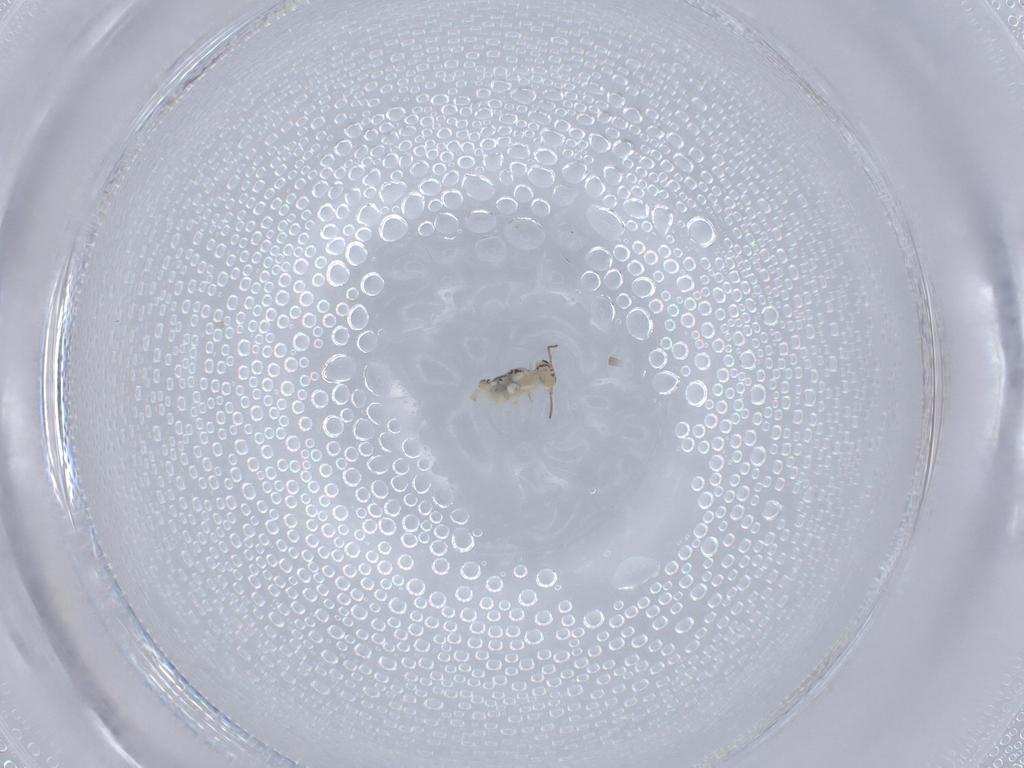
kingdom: Animalia
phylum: Arthropoda
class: Collembola
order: Symphypleona
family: Bourletiellidae
